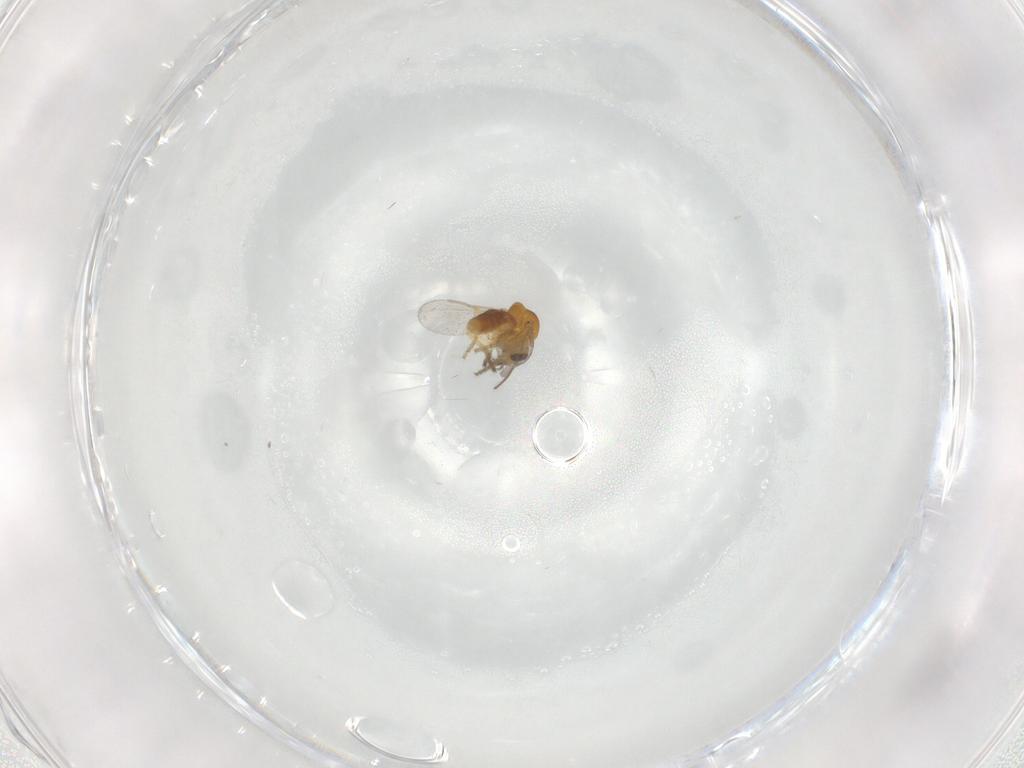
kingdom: Animalia
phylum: Arthropoda
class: Insecta
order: Diptera
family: Ceratopogonidae
